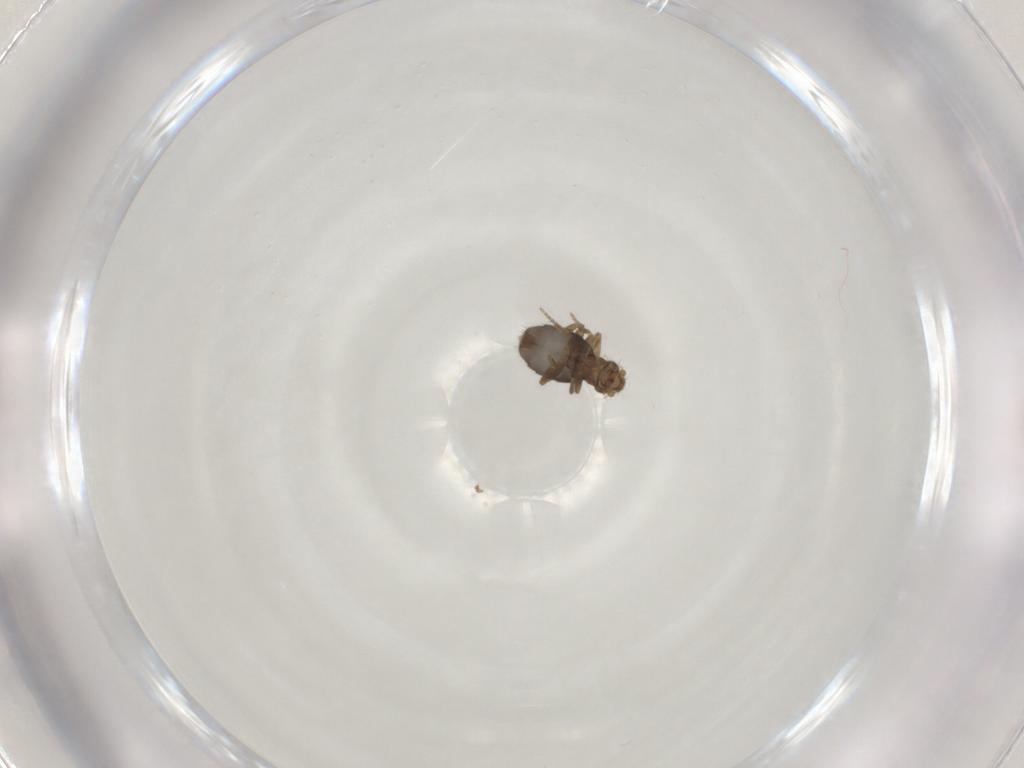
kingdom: Animalia
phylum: Arthropoda
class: Insecta
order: Diptera
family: Phoridae
